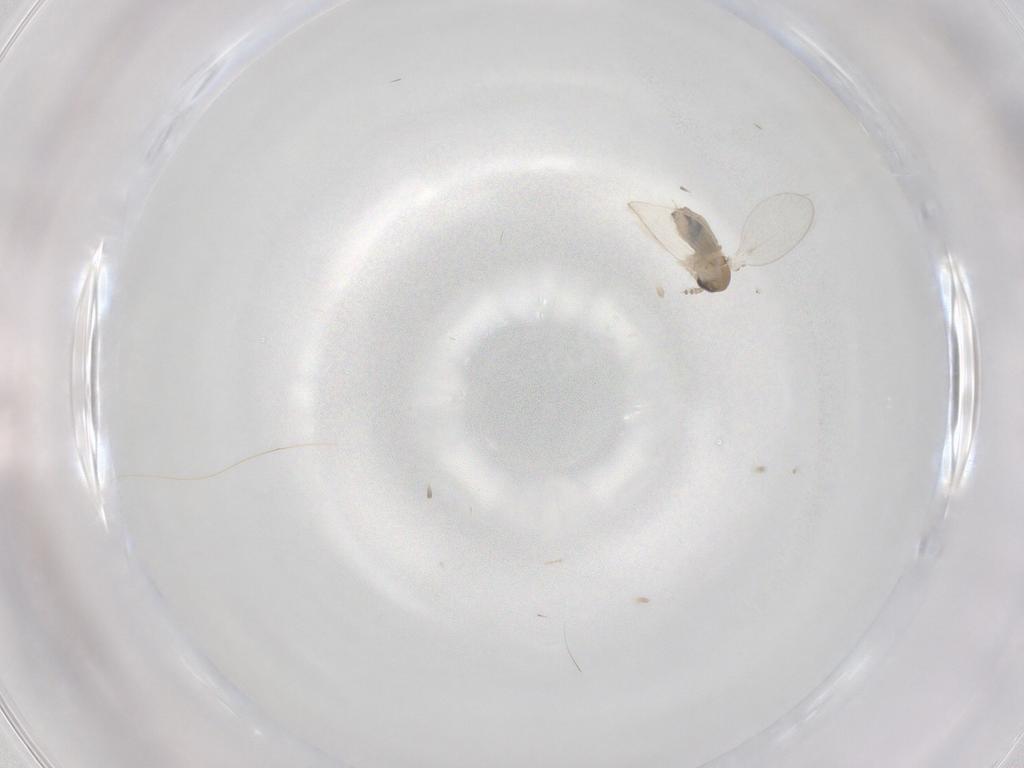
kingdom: Animalia
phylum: Arthropoda
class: Insecta
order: Diptera
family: Psychodidae
